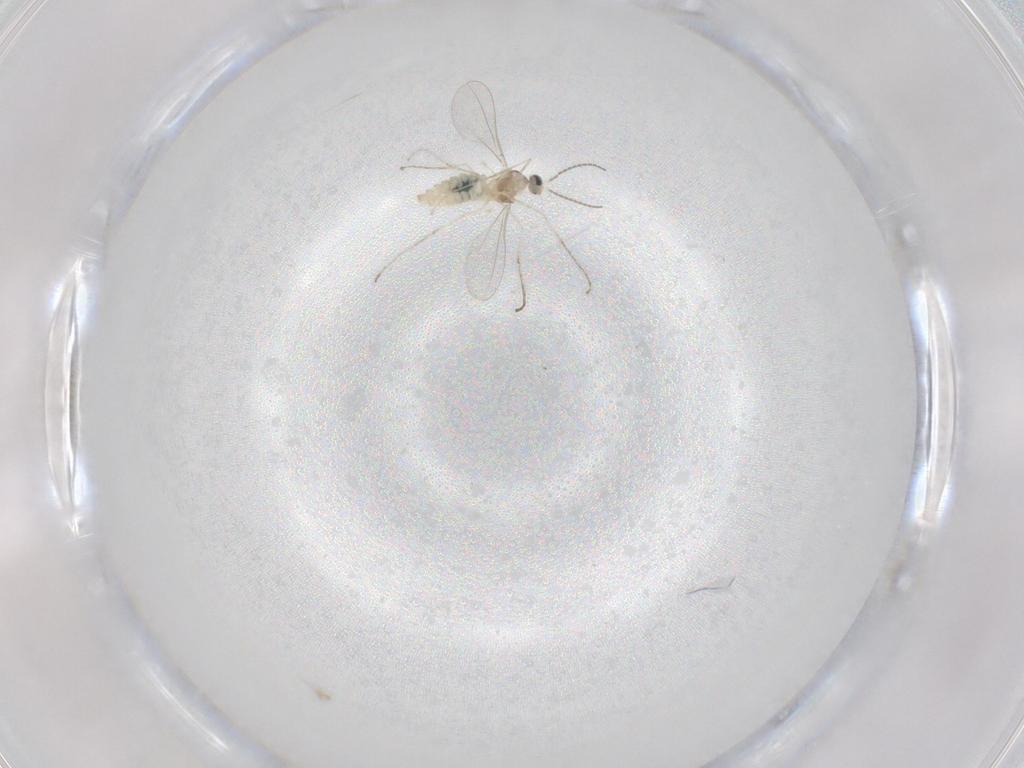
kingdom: Animalia
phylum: Arthropoda
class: Insecta
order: Diptera
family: Cecidomyiidae
